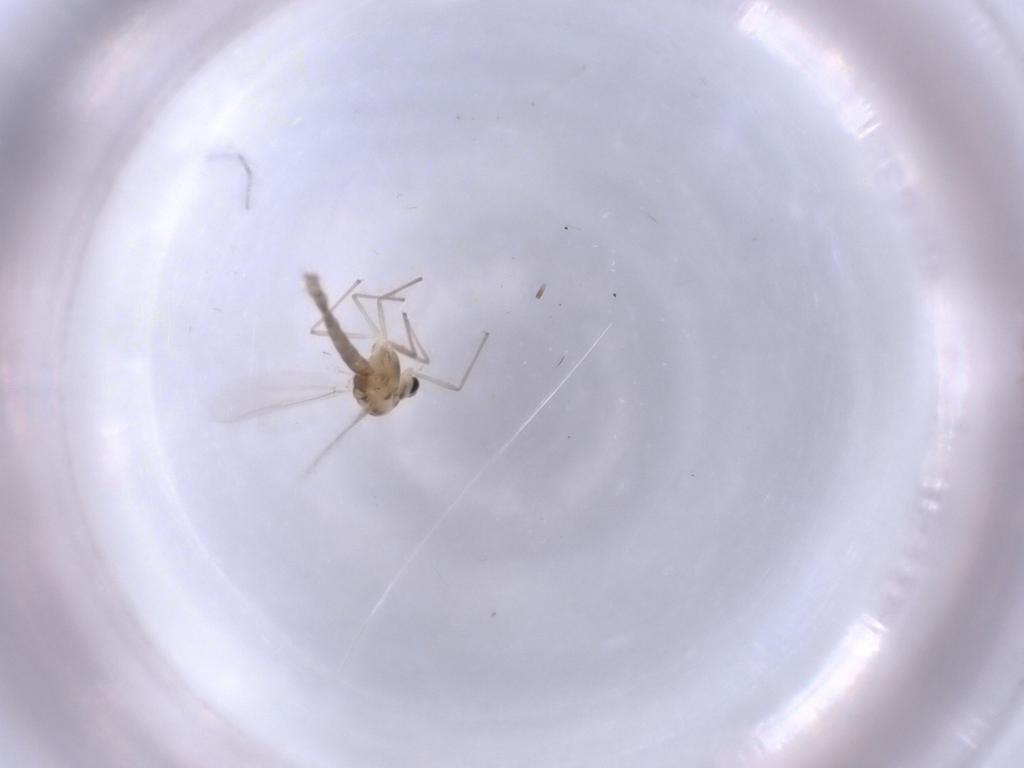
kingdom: Animalia
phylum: Arthropoda
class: Insecta
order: Diptera
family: Chironomidae
